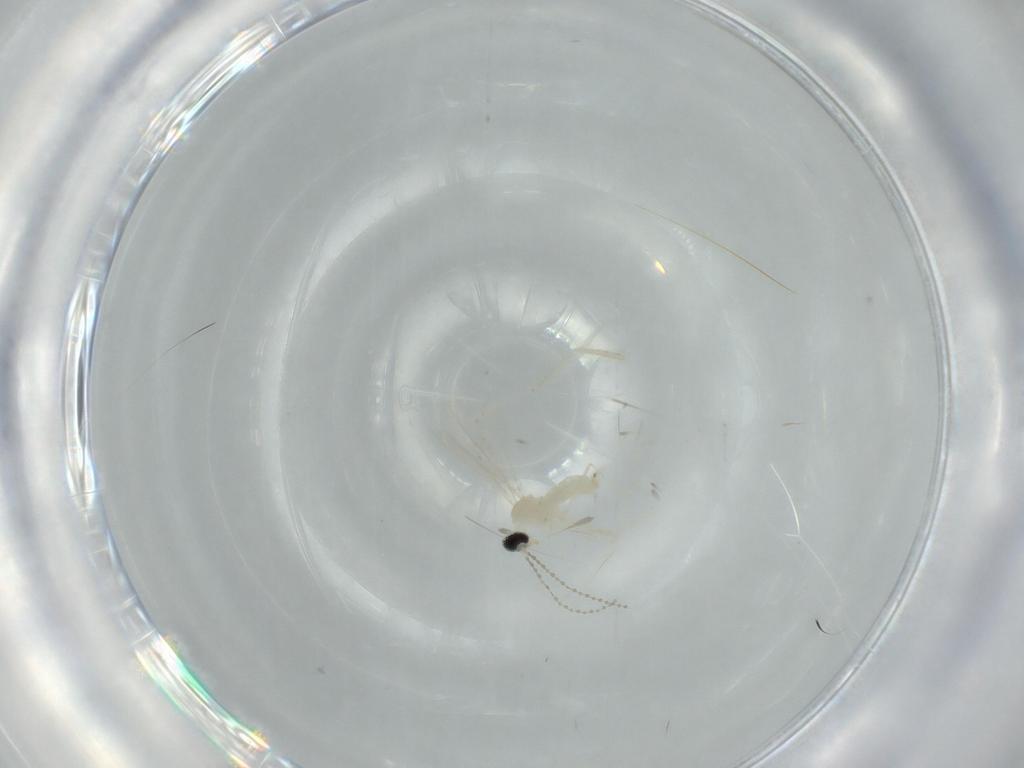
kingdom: Animalia
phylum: Arthropoda
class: Insecta
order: Diptera
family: Cecidomyiidae
